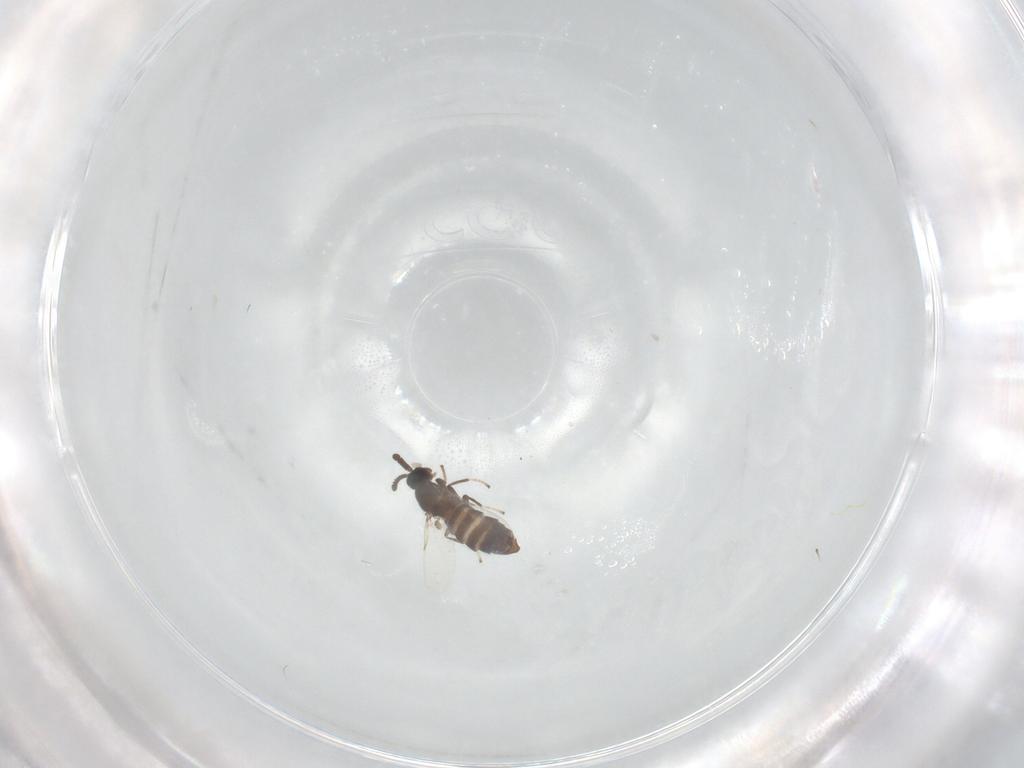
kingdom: Animalia
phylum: Arthropoda
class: Insecta
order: Diptera
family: Scatopsidae
